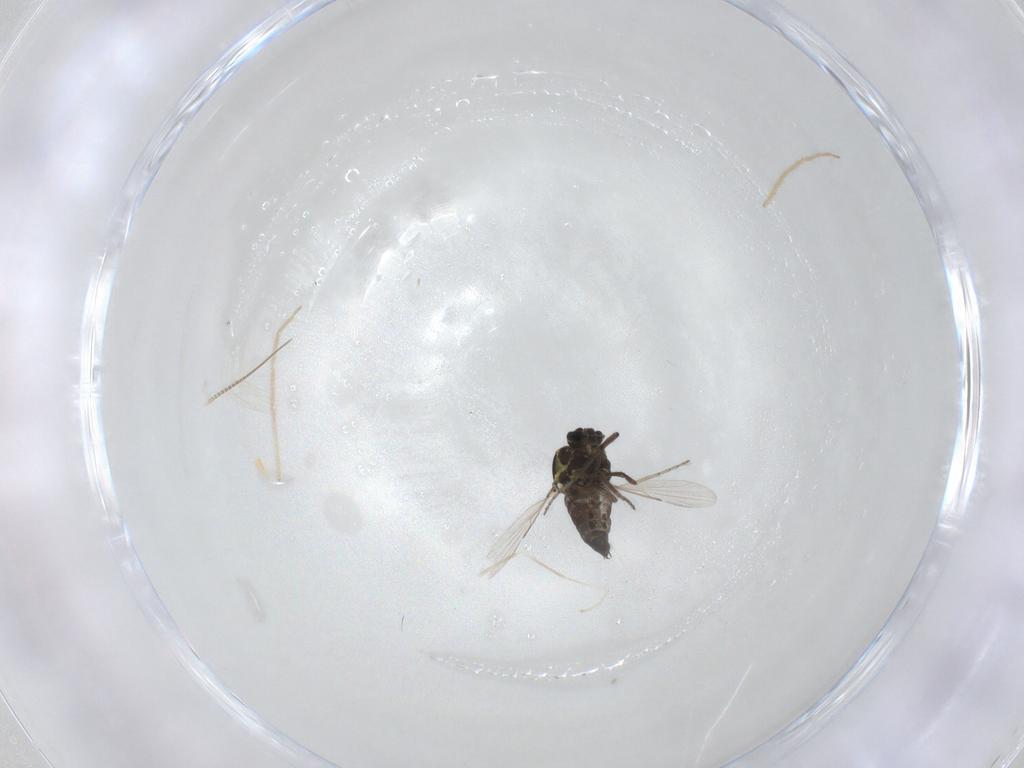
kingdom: Animalia
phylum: Arthropoda
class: Insecta
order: Diptera
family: Ceratopogonidae
